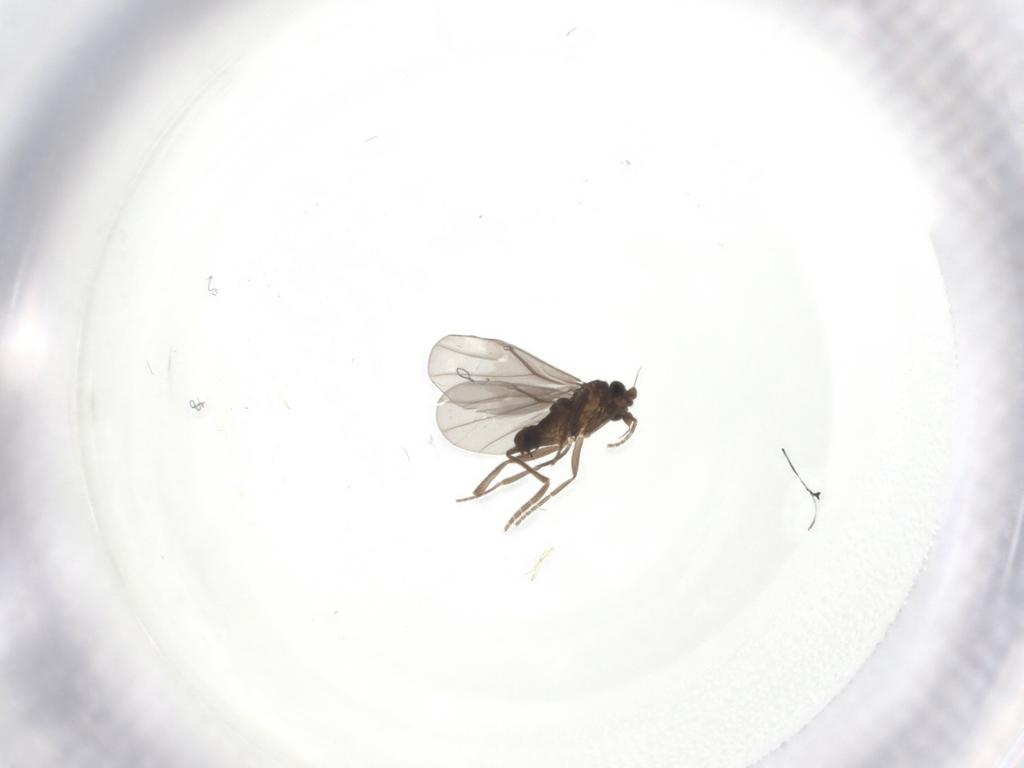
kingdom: Animalia
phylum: Arthropoda
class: Insecta
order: Diptera
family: Phoridae
